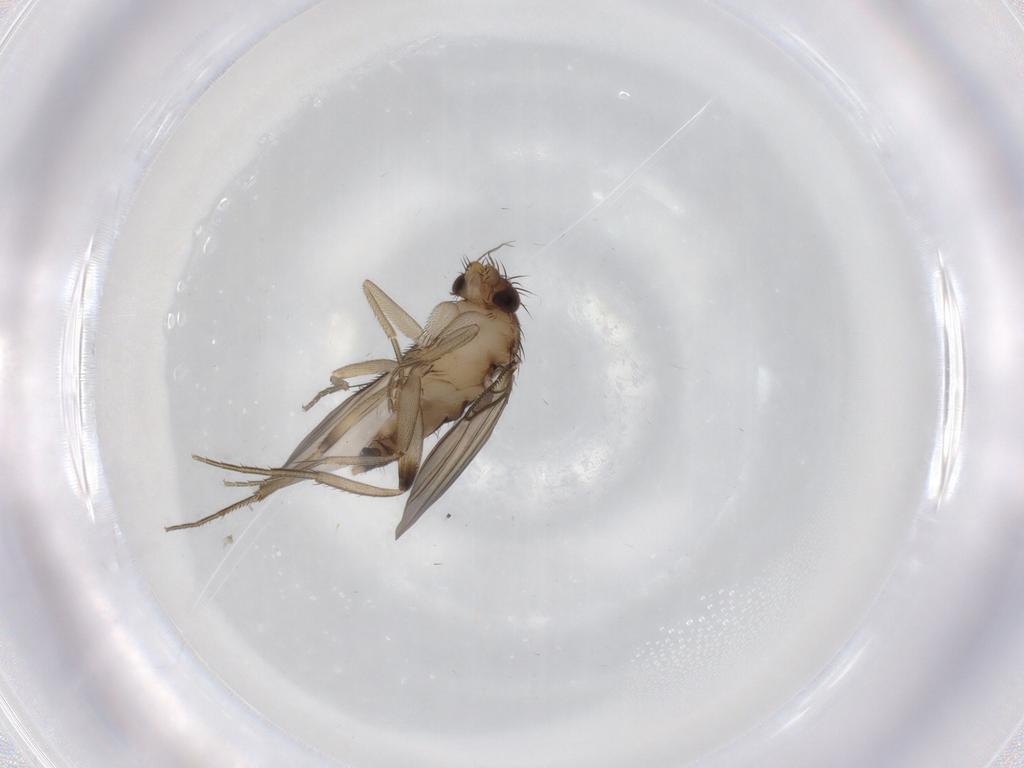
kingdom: Animalia
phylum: Arthropoda
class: Insecta
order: Diptera
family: Phoridae
